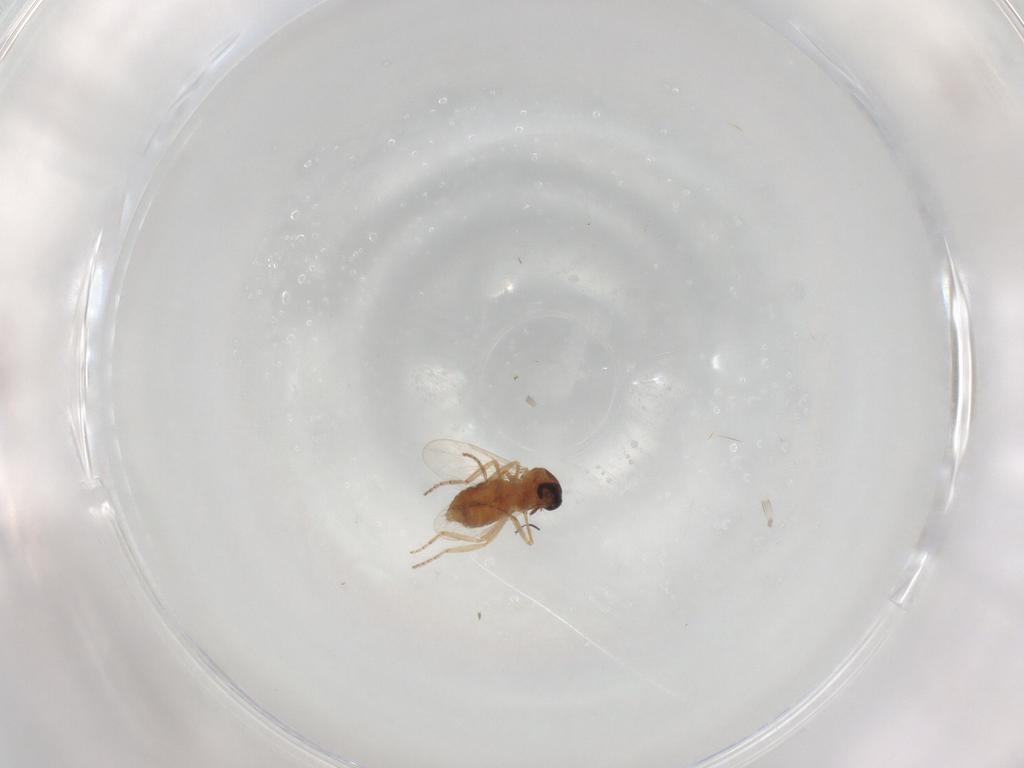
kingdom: Animalia
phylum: Arthropoda
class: Insecta
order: Diptera
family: Ceratopogonidae
